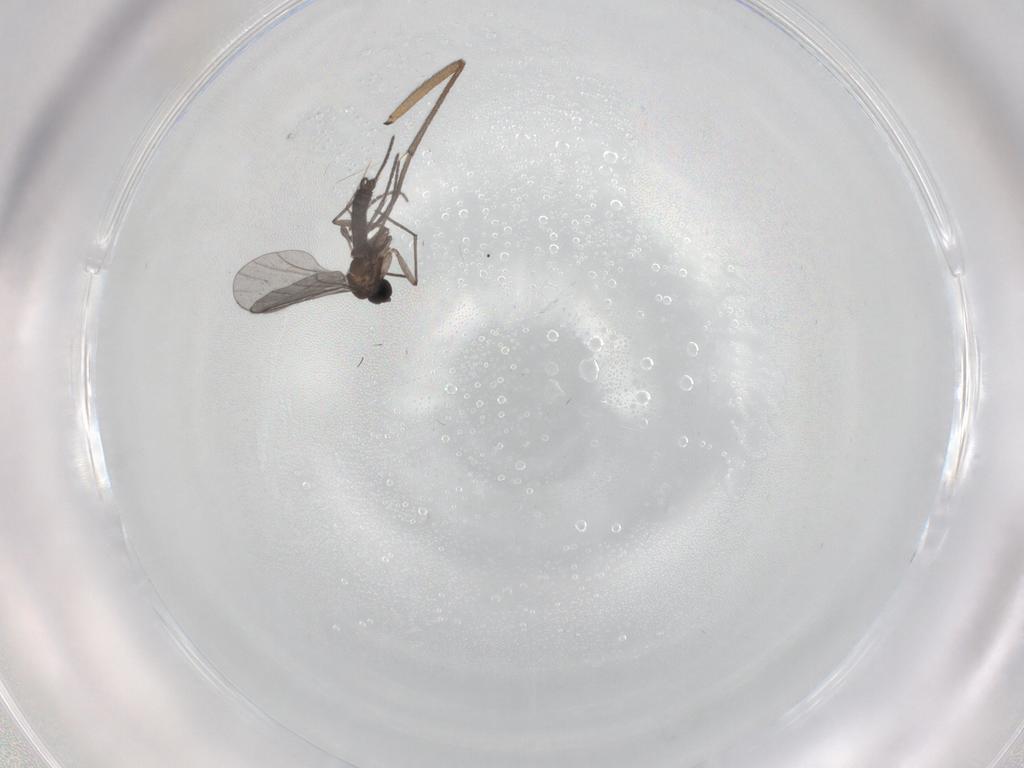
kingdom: Animalia
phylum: Arthropoda
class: Insecta
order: Diptera
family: Sciaridae
